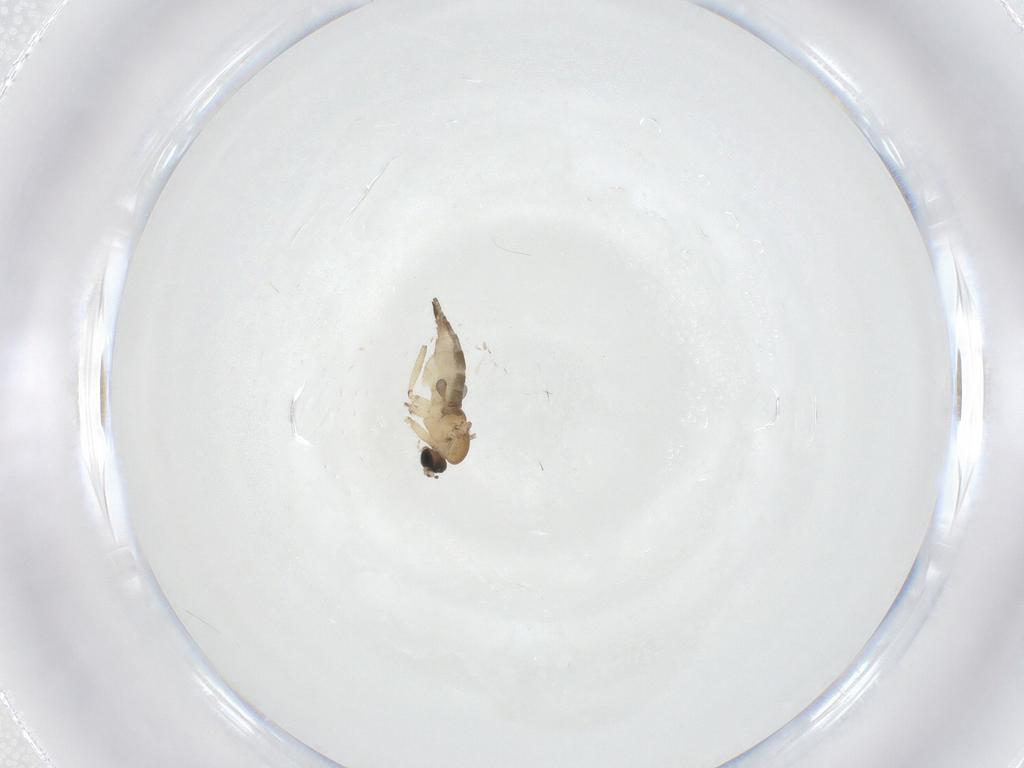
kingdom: Animalia
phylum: Arthropoda
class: Insecta
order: Diptera
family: Sciaridae
